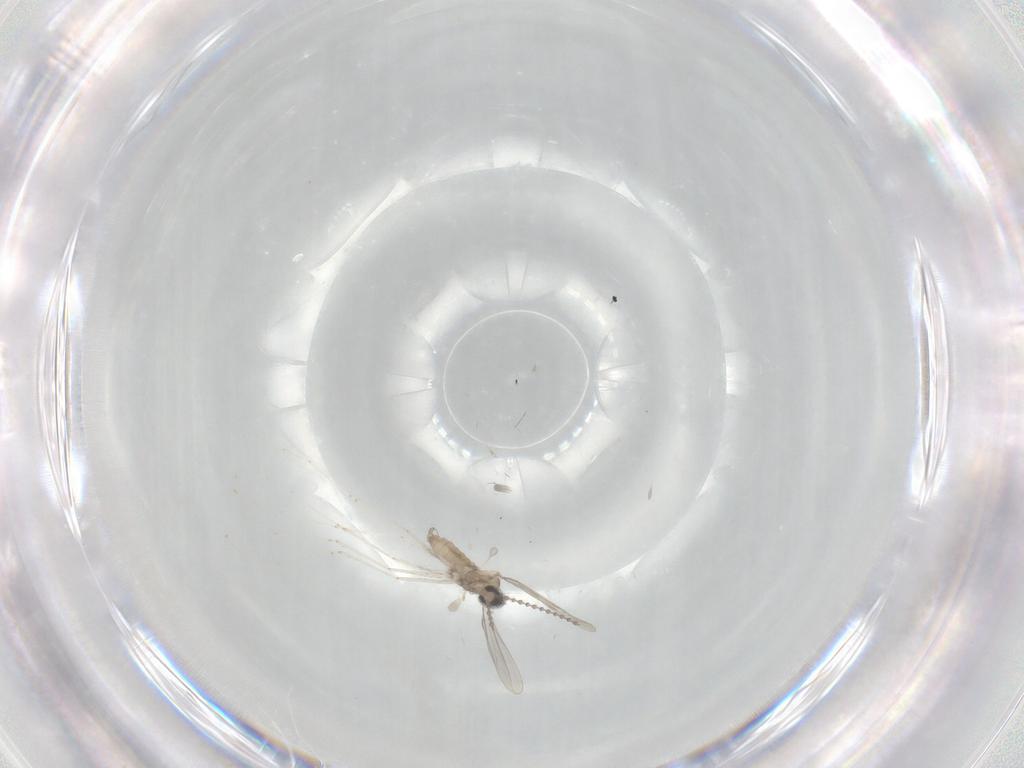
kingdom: Animalia
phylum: Arthropoda
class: Insecta
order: Diptera
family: Cecidomyiidae
